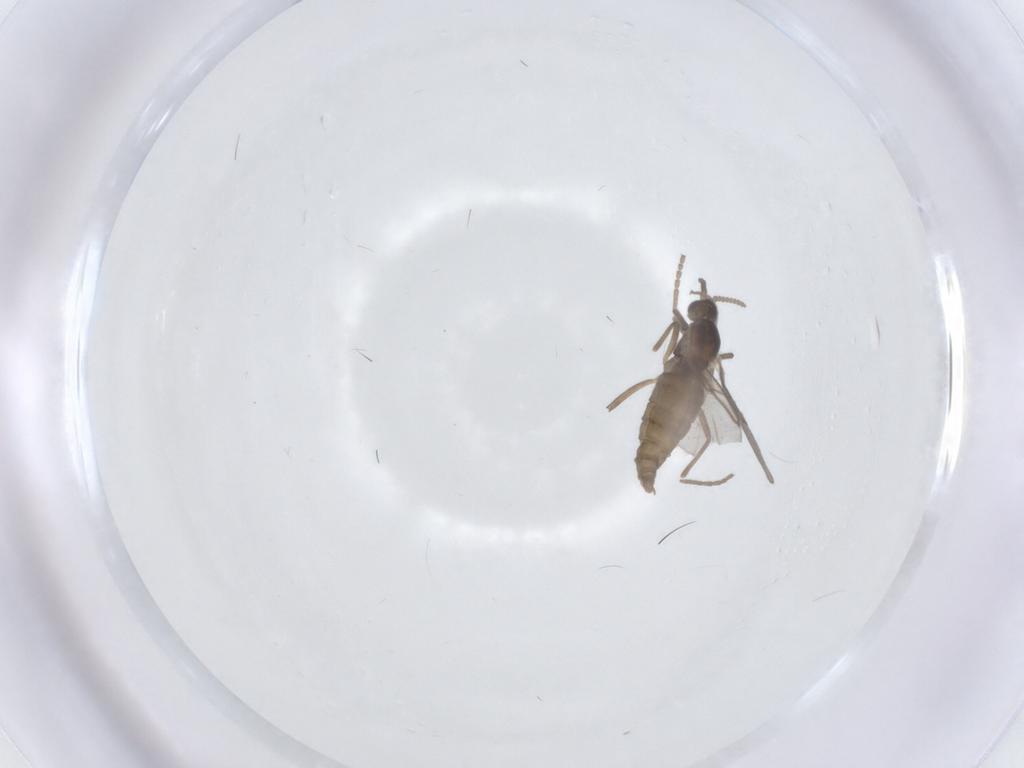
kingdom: Animalia
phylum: Arthropoda
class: Insecta
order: Diptera
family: Cecidomyiidae
